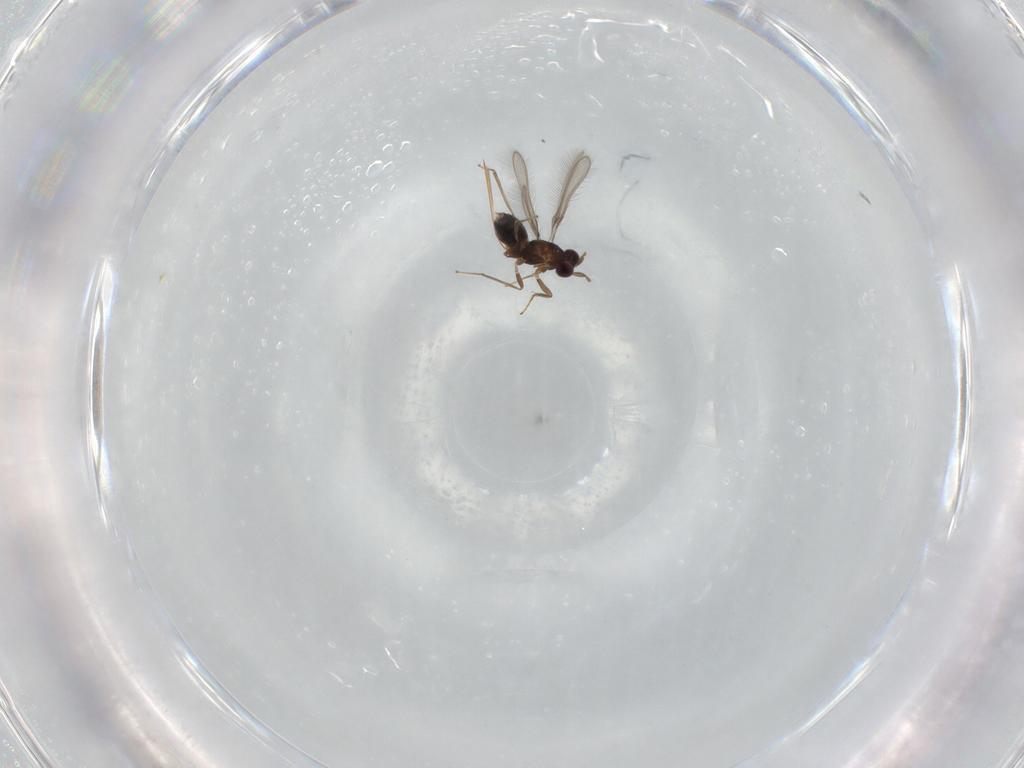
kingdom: Animalia
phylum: Arthropoda
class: Insecta
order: Hymenoptera
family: Mymaridae
